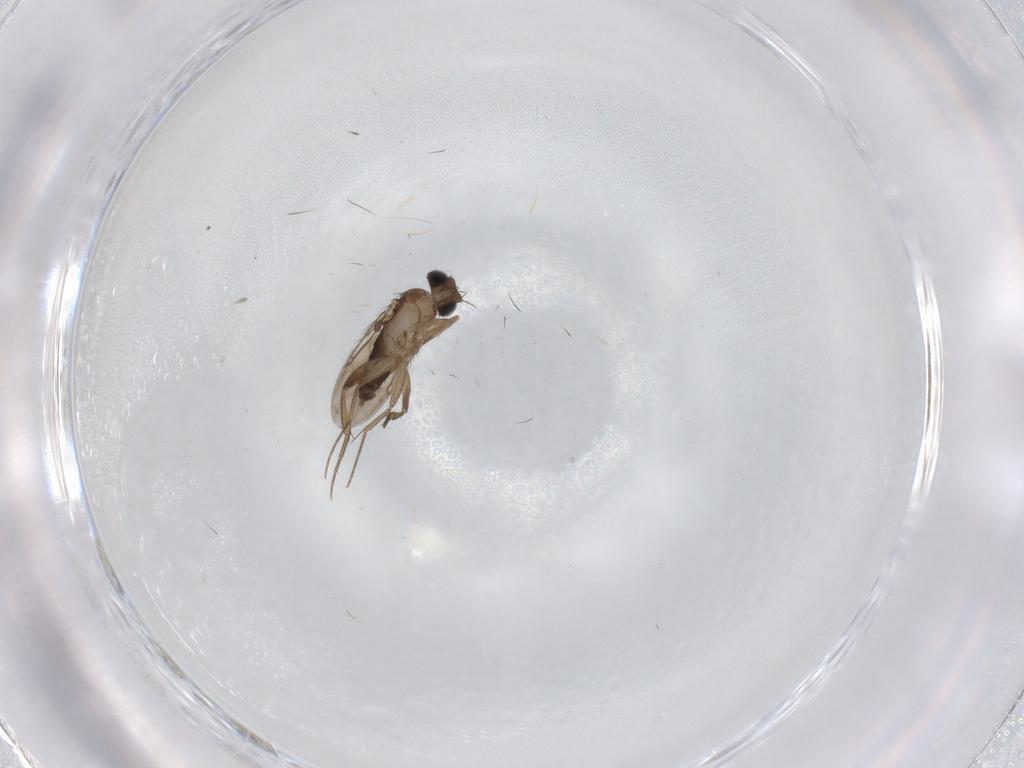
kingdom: Animalia
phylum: Arthropoda
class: Insecta
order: Diptera
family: Phoridae
